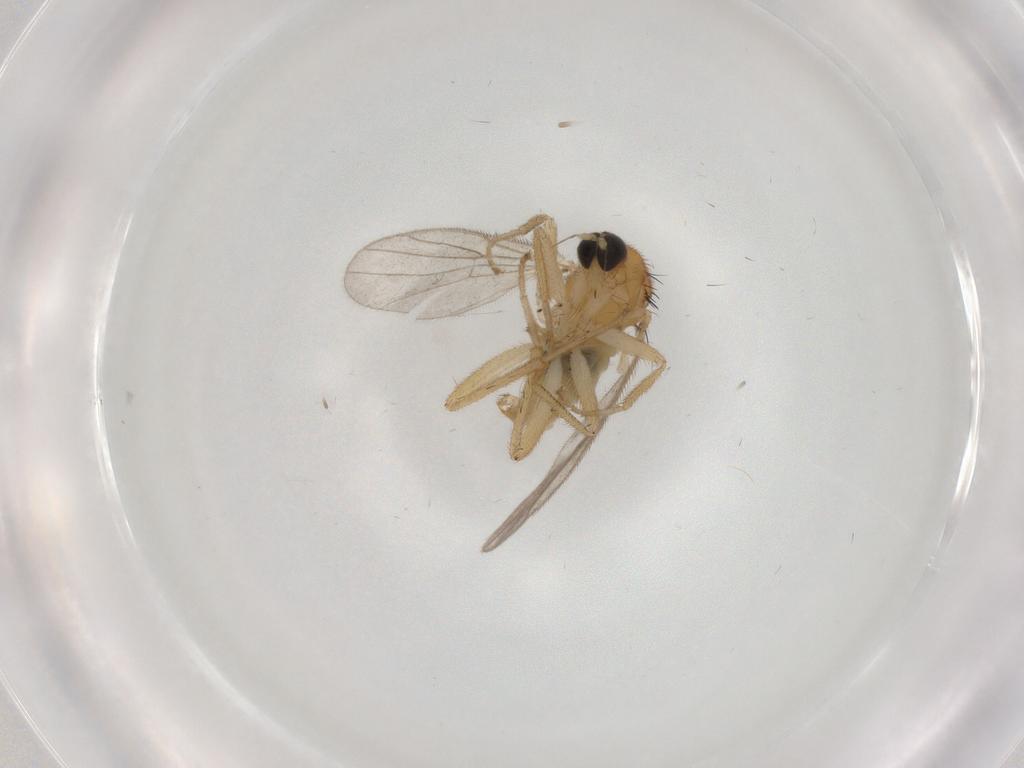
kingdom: Animalia
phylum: Arthropoda
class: Insecta
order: Diptera
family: Hybotidae
